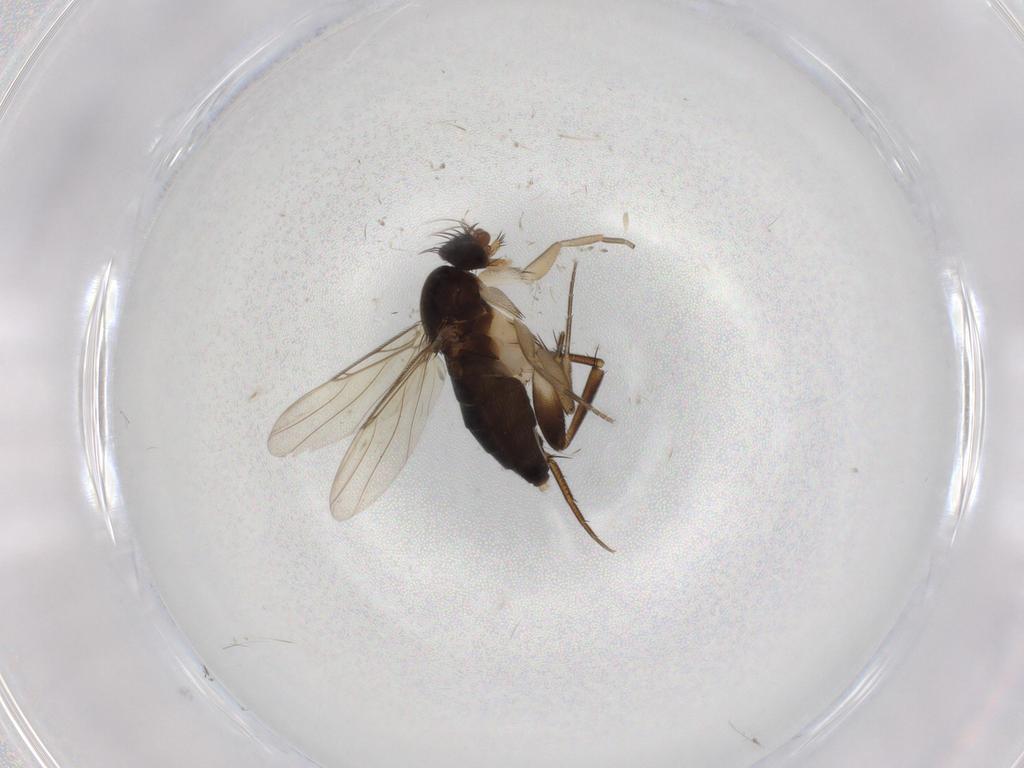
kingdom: Animalia
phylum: Arthropoda
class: Insecta
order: Diptera
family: Phoridae
